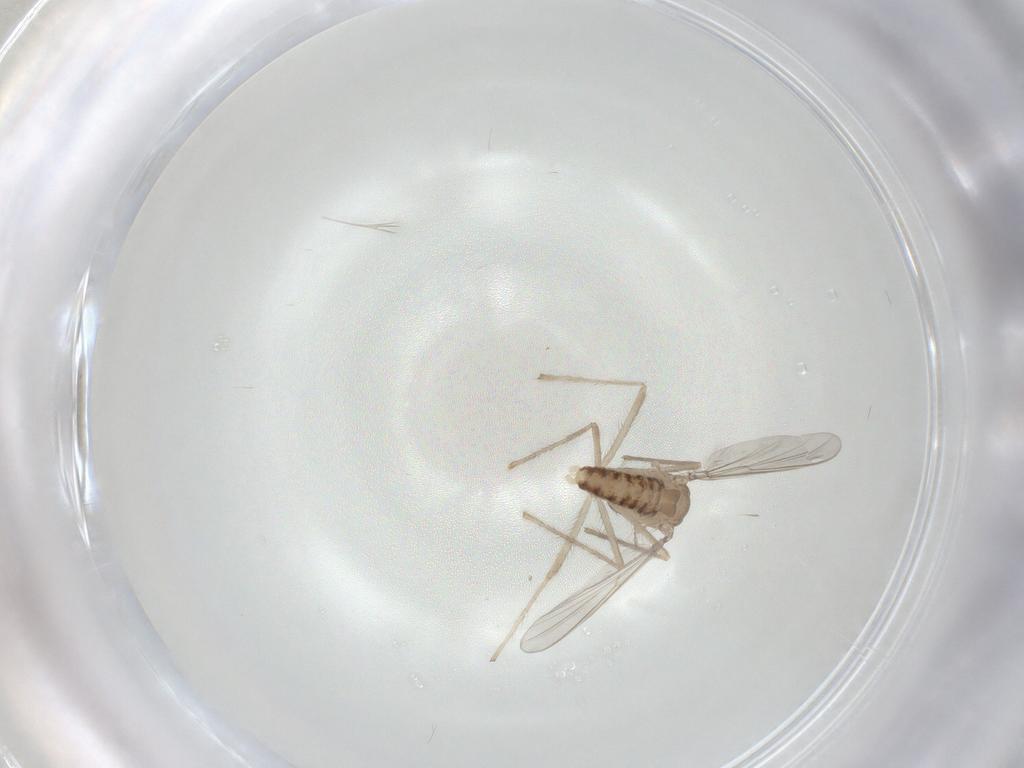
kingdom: Animalia
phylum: Arthropoda
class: Insecta
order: Diptera
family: Chironomidae
